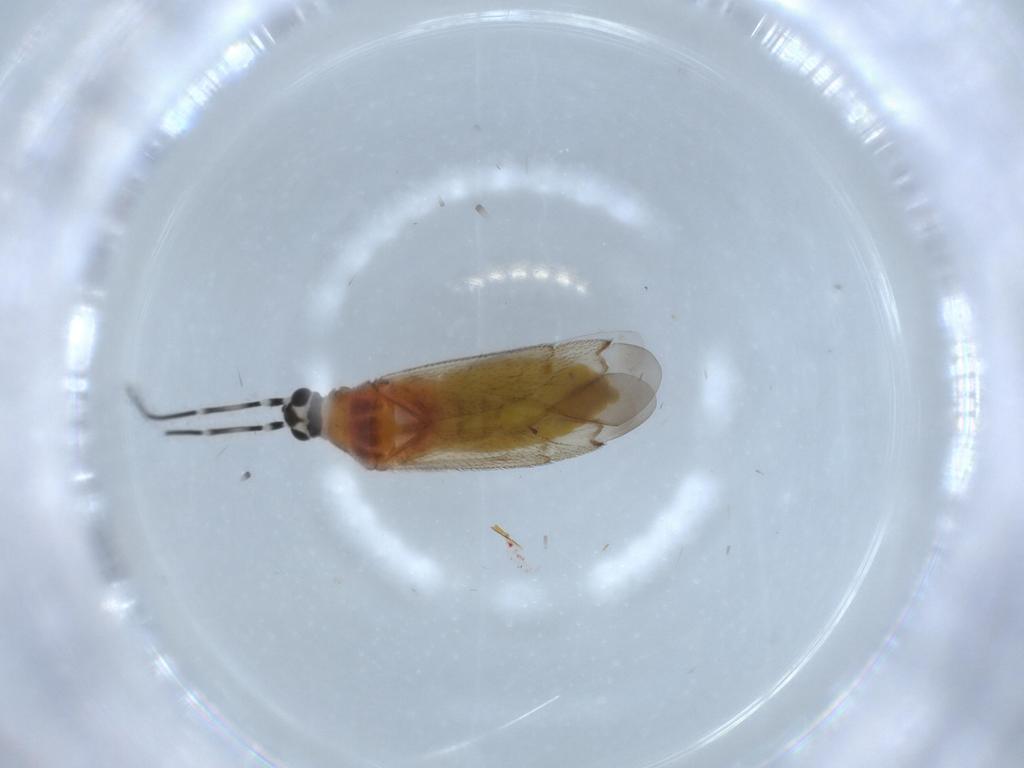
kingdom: Animalia
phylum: Arthropoda
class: Insecta
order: Hemiptera
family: Miridae
